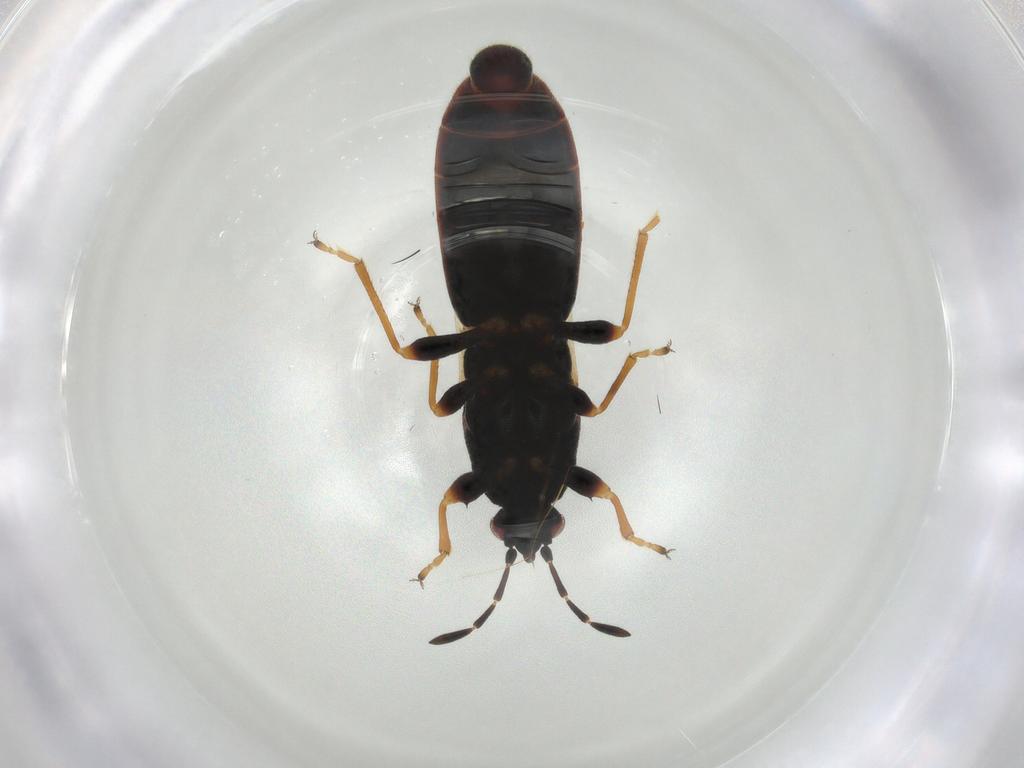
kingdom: Animalia
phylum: Arthropoda
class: Insecta
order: Hemiptera
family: Blissidae
